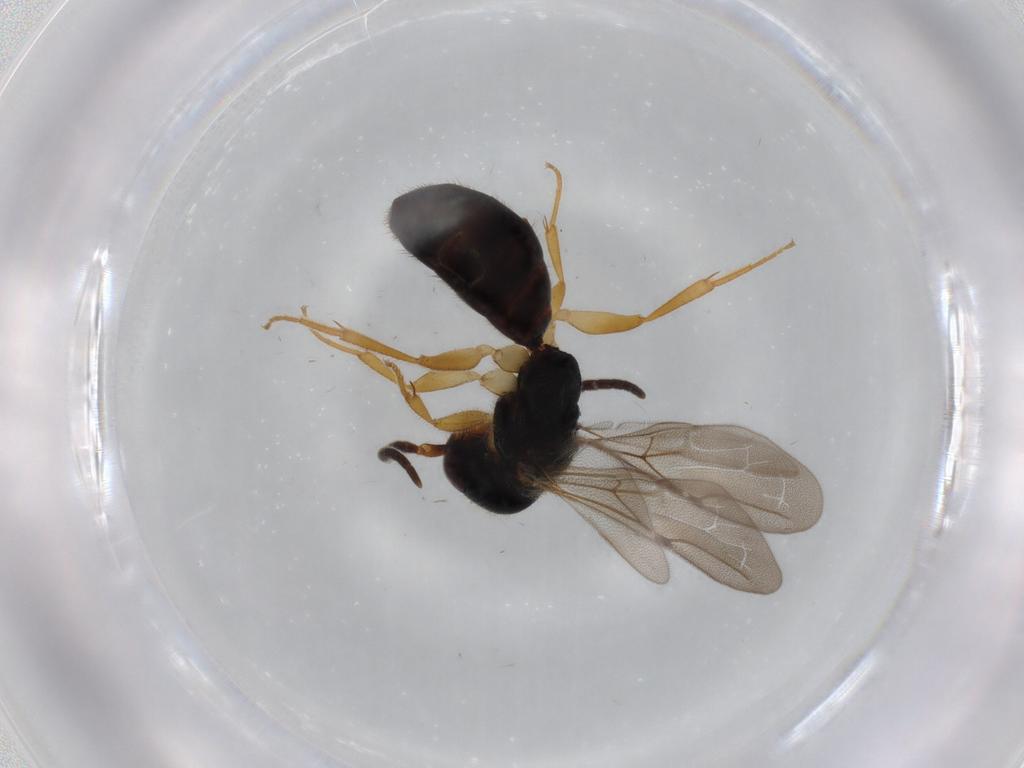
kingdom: Animalia
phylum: Arthropoda
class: Insecta
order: Hymenoptera
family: Bethylidae
